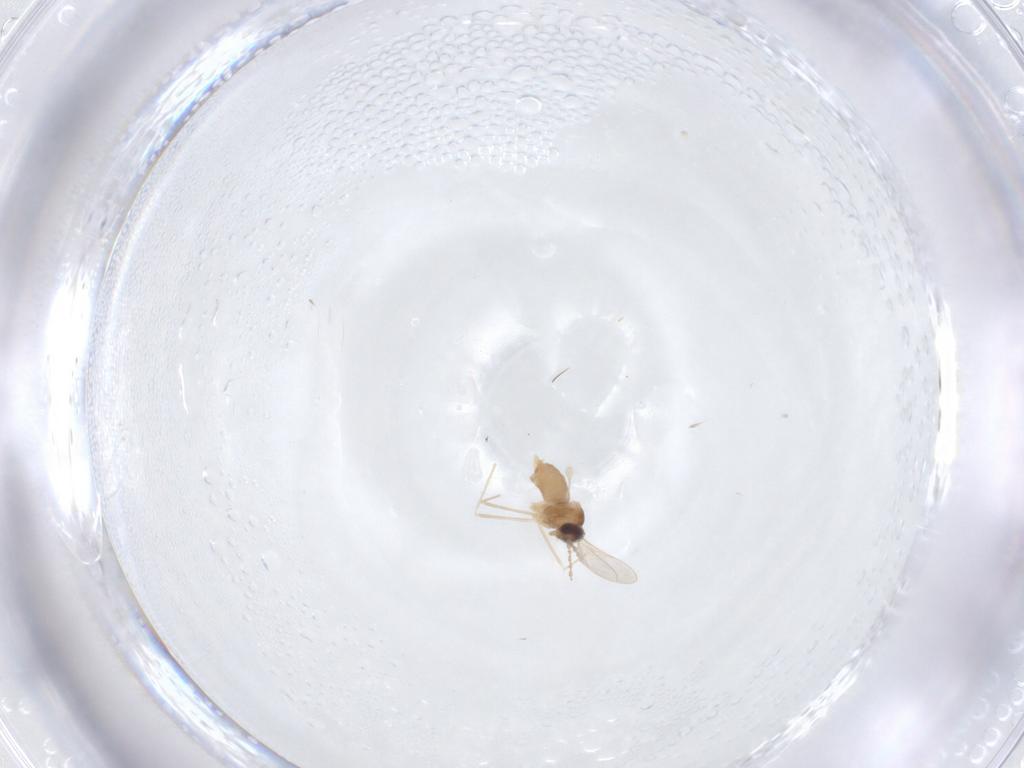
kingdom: Animalia
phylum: Arthropoda
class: Insecta
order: Diptera
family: Cecidomyiidae
